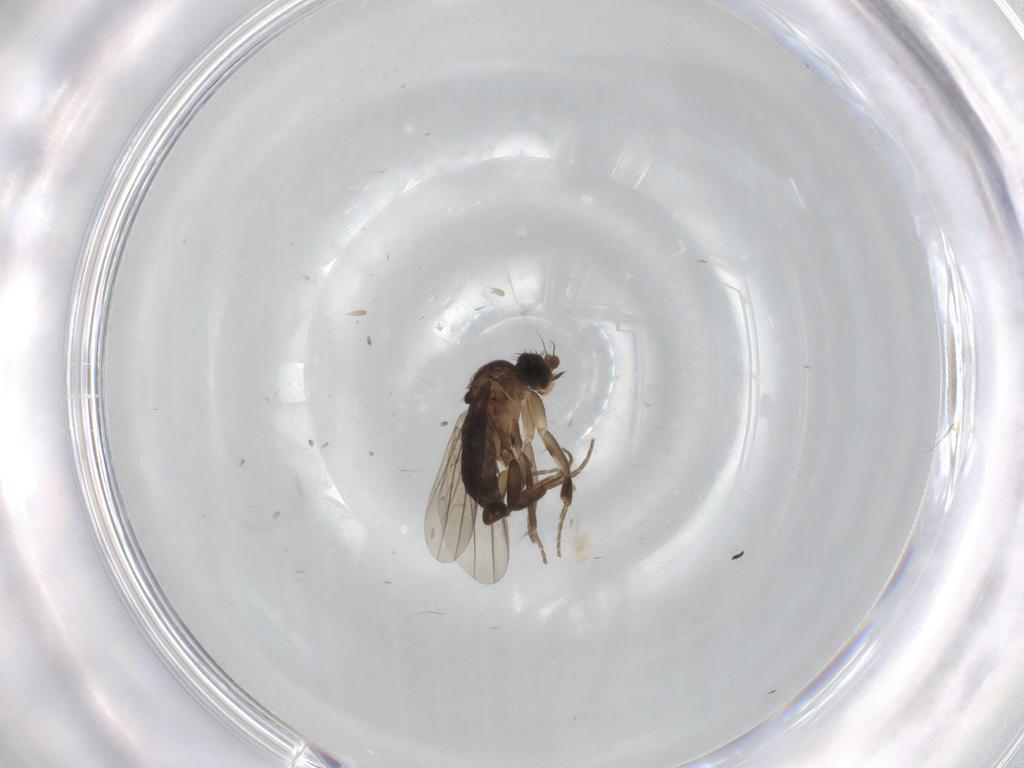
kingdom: Animalia
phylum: Arthropoda
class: Insecta
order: Diptera
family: Phoridae
